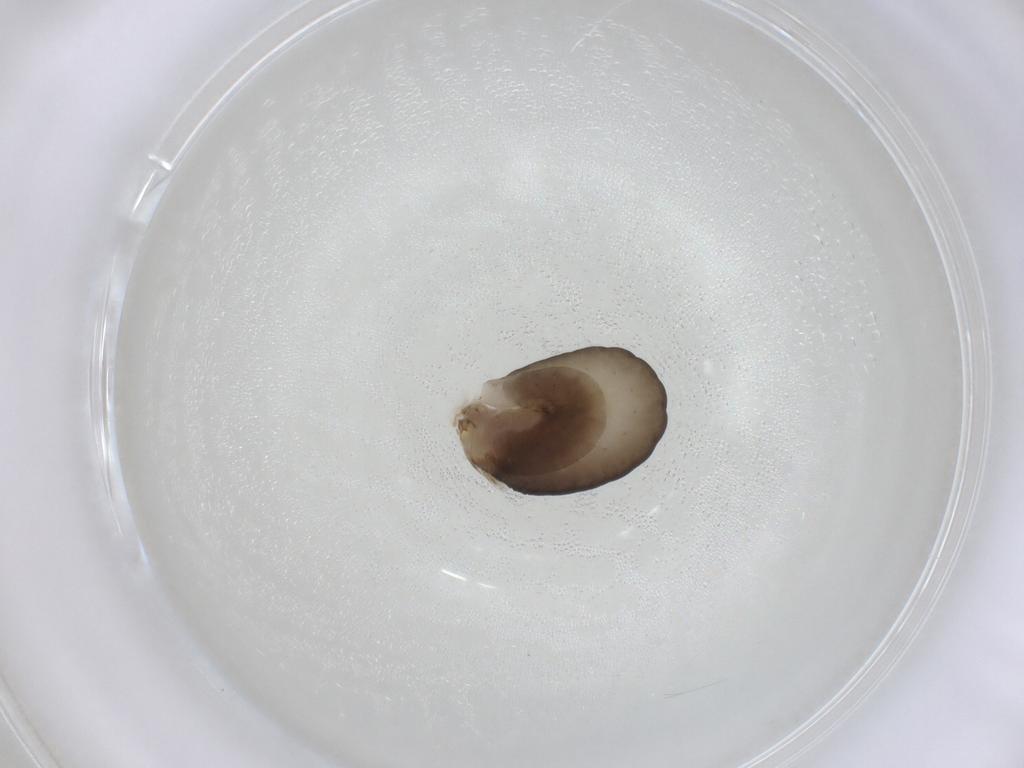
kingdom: Animalia
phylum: Arthropoda
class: Insecta
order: Hymenoptera
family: Dryinidae
